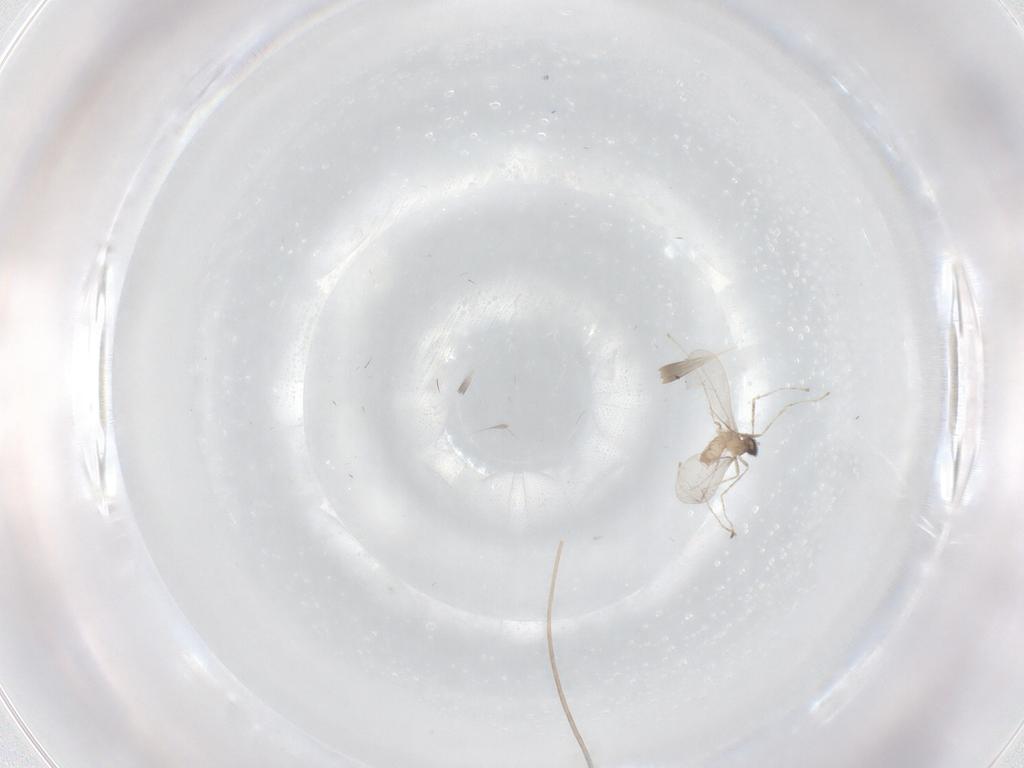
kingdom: Animalia
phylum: Arthropoda
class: Insecta
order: Diptera
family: Cecidomyiidae
